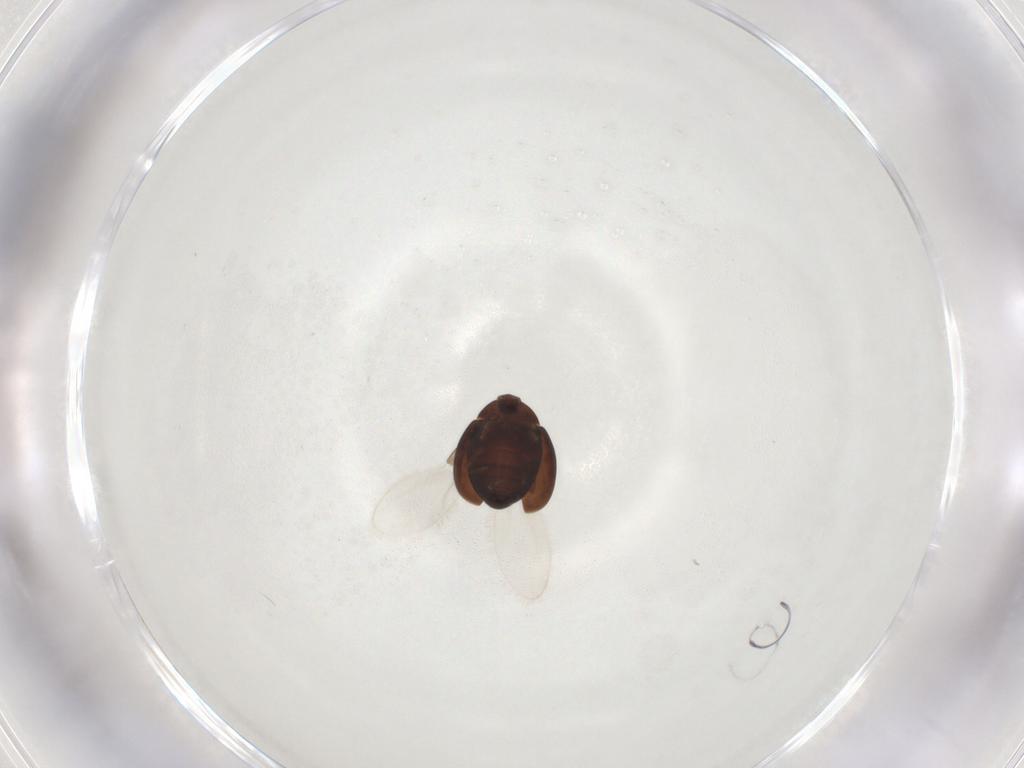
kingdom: Animalia
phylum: Arthropoda
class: Insecta
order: Coleoptera
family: Corylophidae
